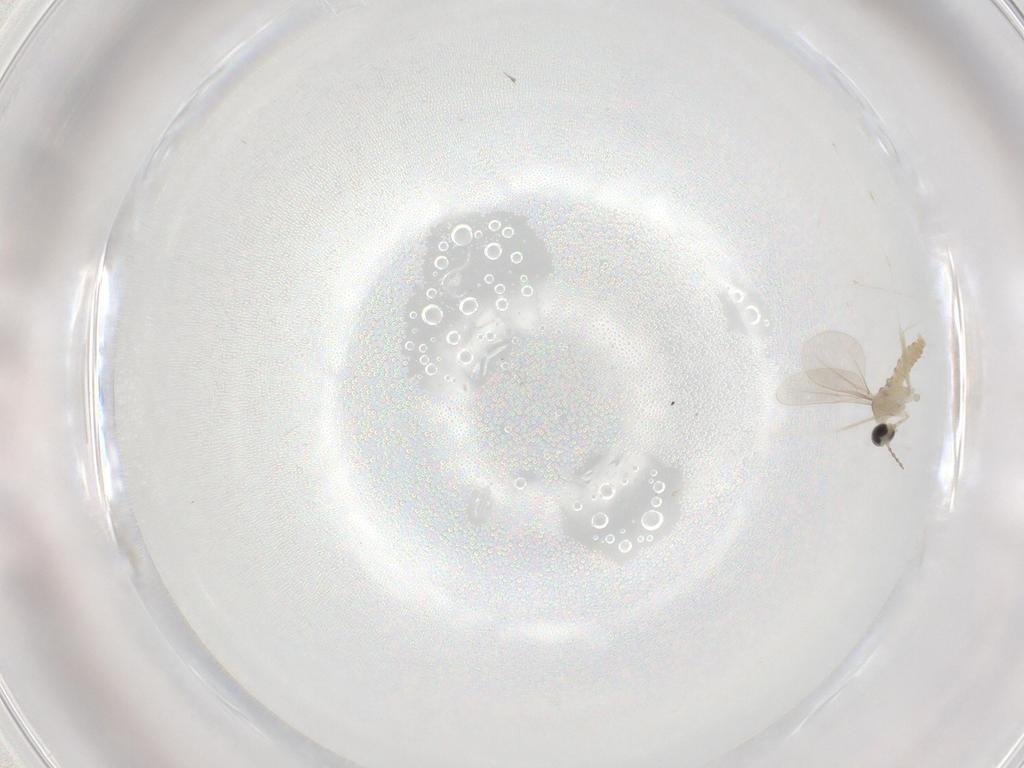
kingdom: Animalia
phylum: Arthropoda
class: Insecta
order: Diptera
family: Cecidomyiidae
